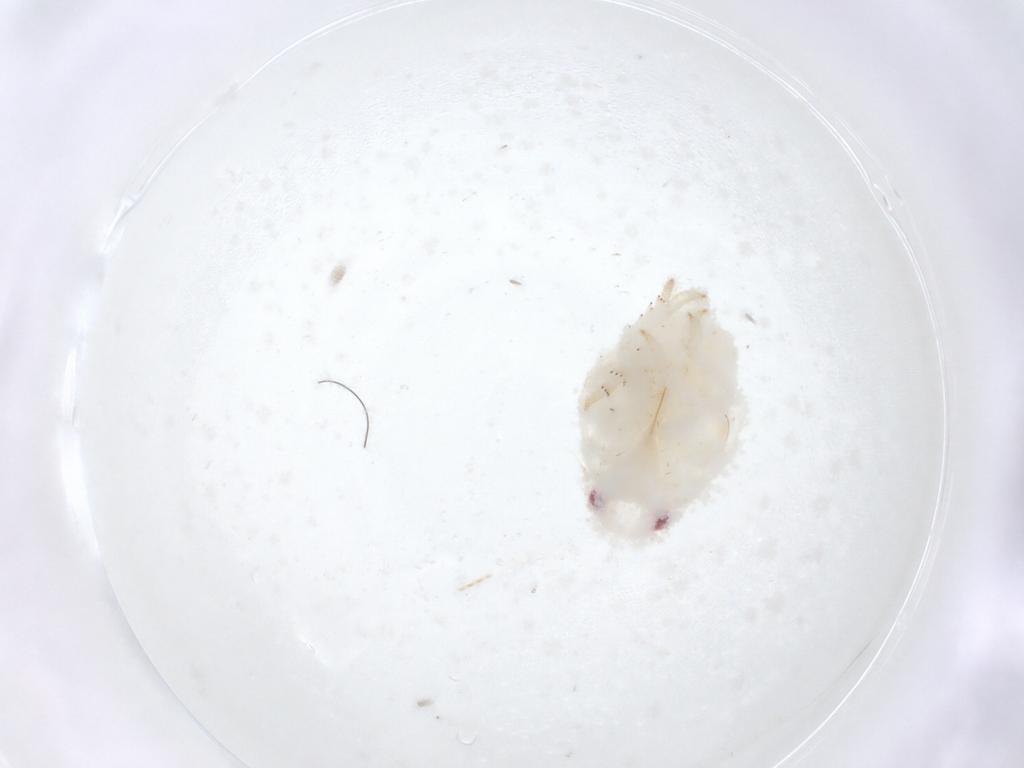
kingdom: Animalia
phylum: Arthropoda
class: Insecta
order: Hemiptera
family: Flatidae
